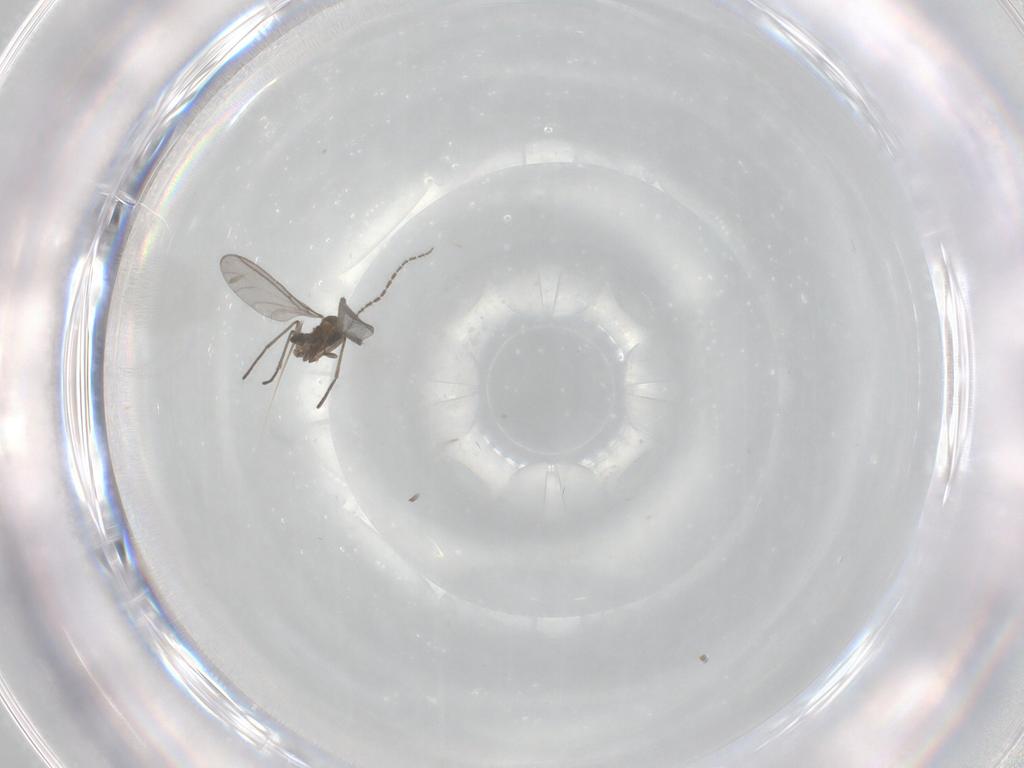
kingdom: Animalia
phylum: Arthropoda
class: Insecta
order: Diptera
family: Sciaridae
